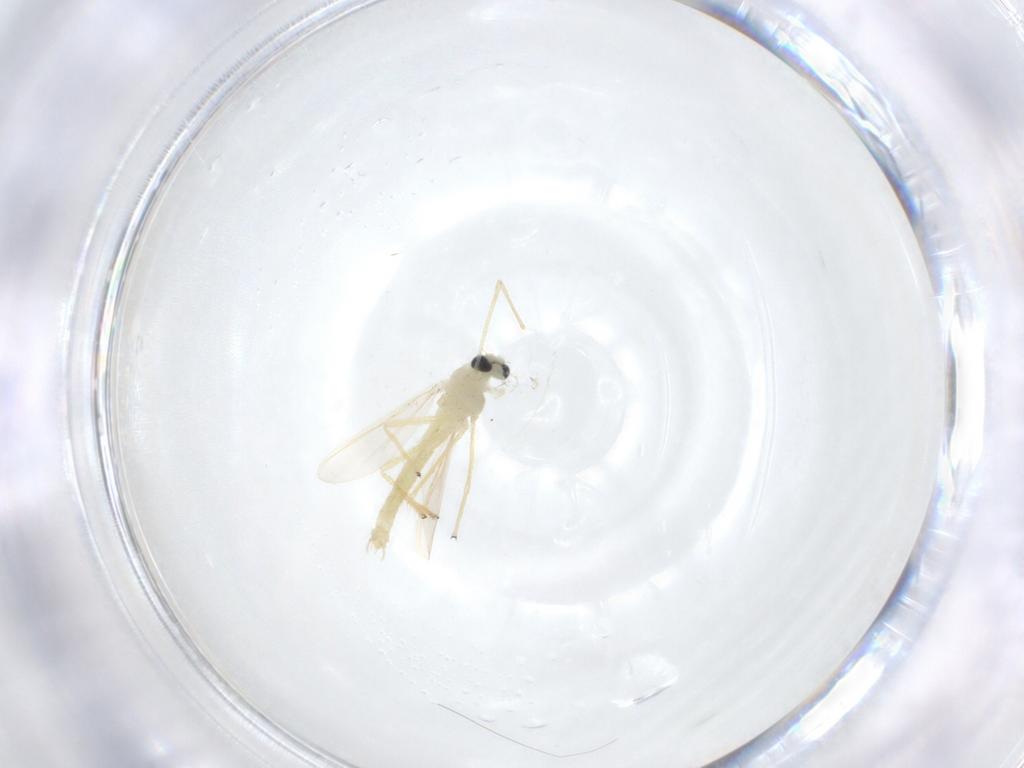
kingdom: Animalia
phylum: Arthropoda
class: Insecta
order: Diptera
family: Chironomidae
